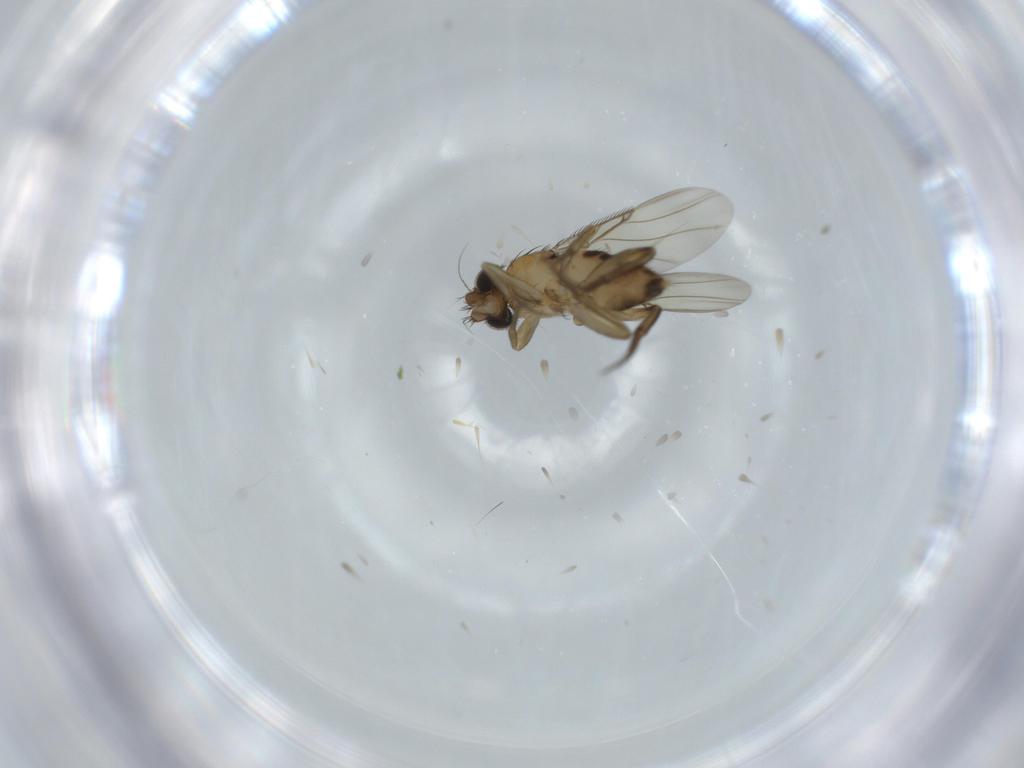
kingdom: Animalia
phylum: Arthropoda
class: Insecta
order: Diptera
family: Phoridae
